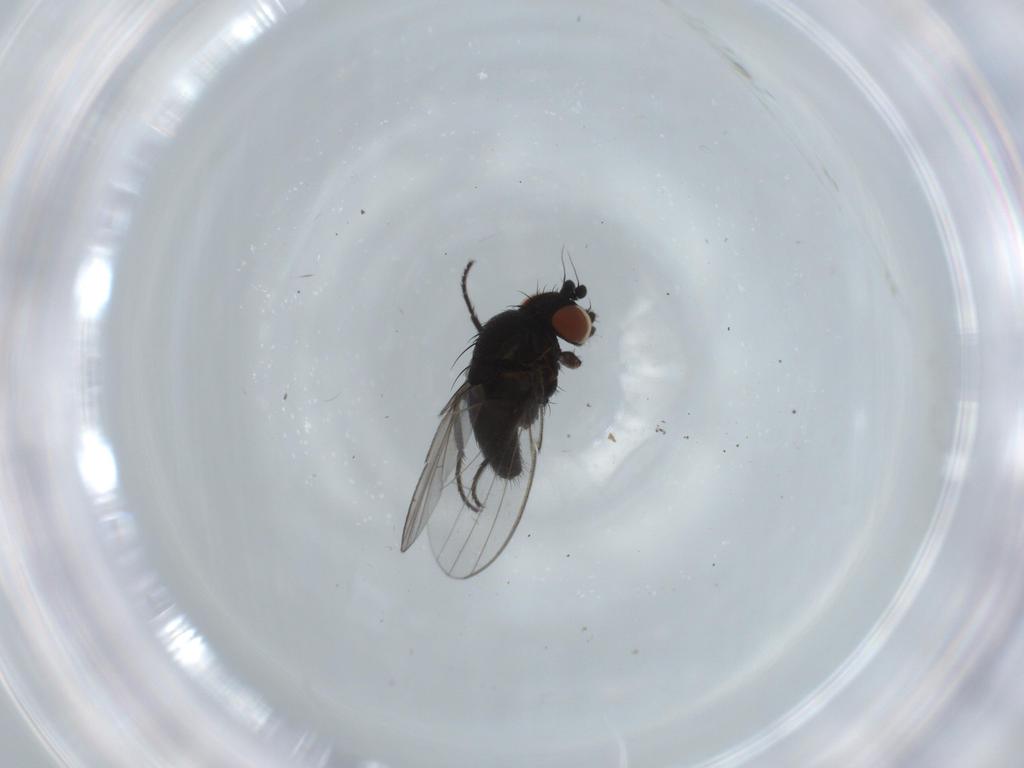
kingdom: Animalia
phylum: Arthropoda
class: Insecta
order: Diptera
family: Milichiidae
